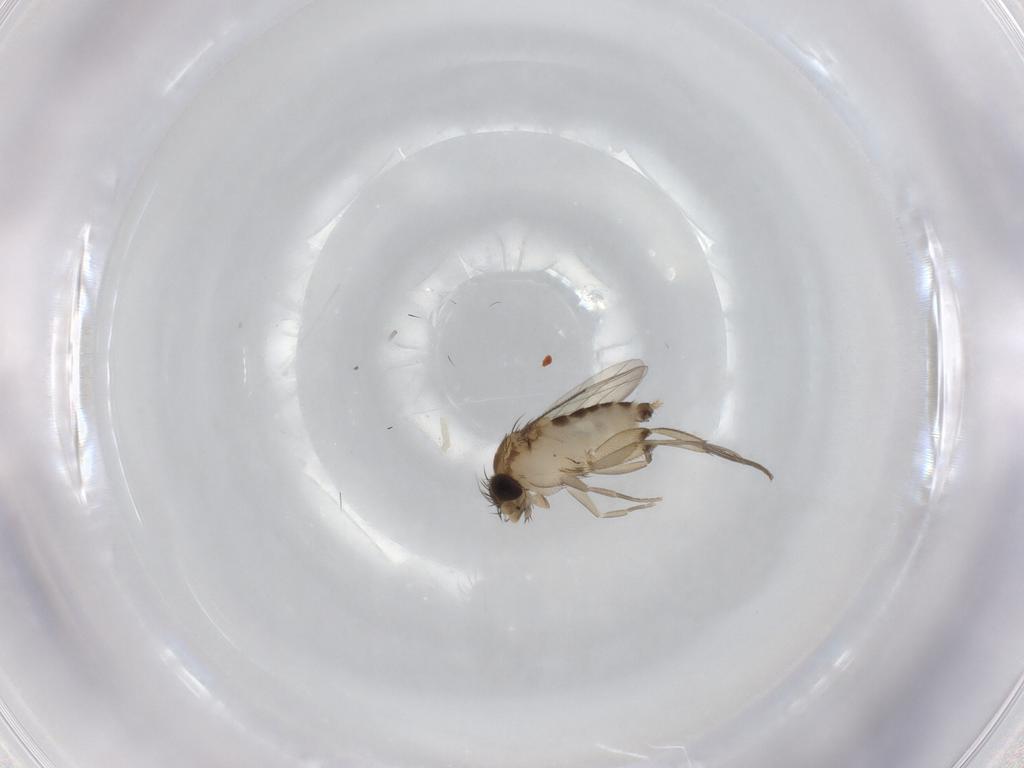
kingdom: Animalia
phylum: Arthropoda
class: Insecta
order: Diptera
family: Phoridae
